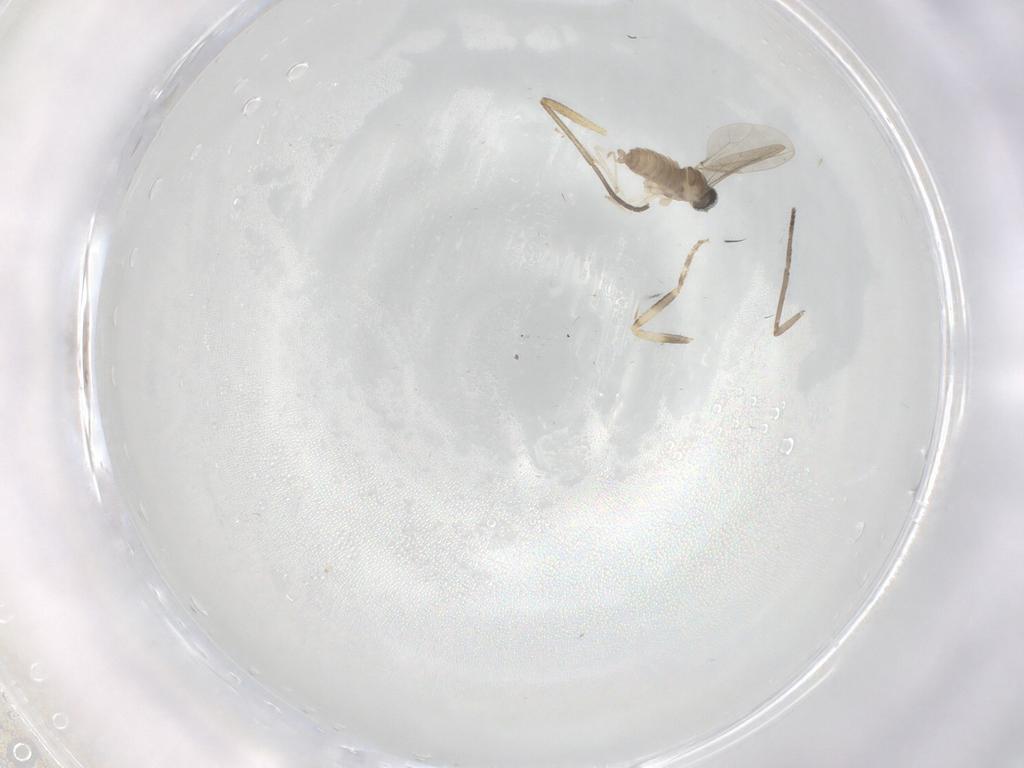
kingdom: Animalia
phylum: Arthropoda
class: Insecta
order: Diptera
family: Ceratopogonidae
